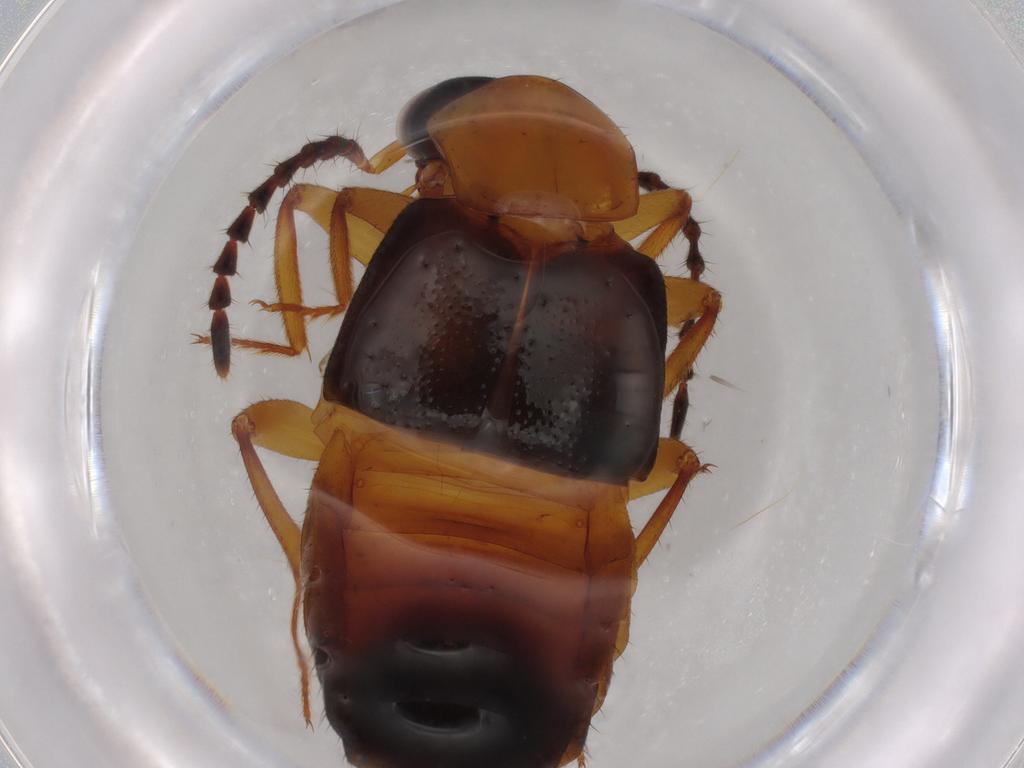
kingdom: Animalia
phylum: Arthropoda
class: Insecta
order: Coleoptera
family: Staphylinidae
